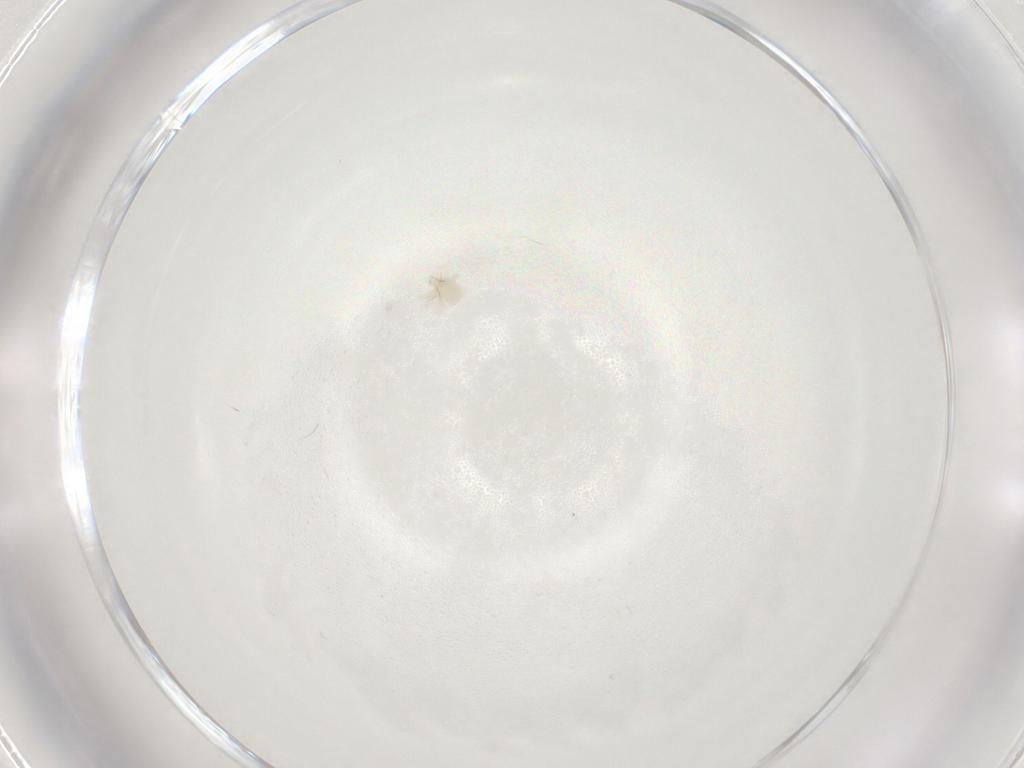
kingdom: Animalia
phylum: Arthropoda
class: Arachnida
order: Trombidiformes
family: Anystidae
